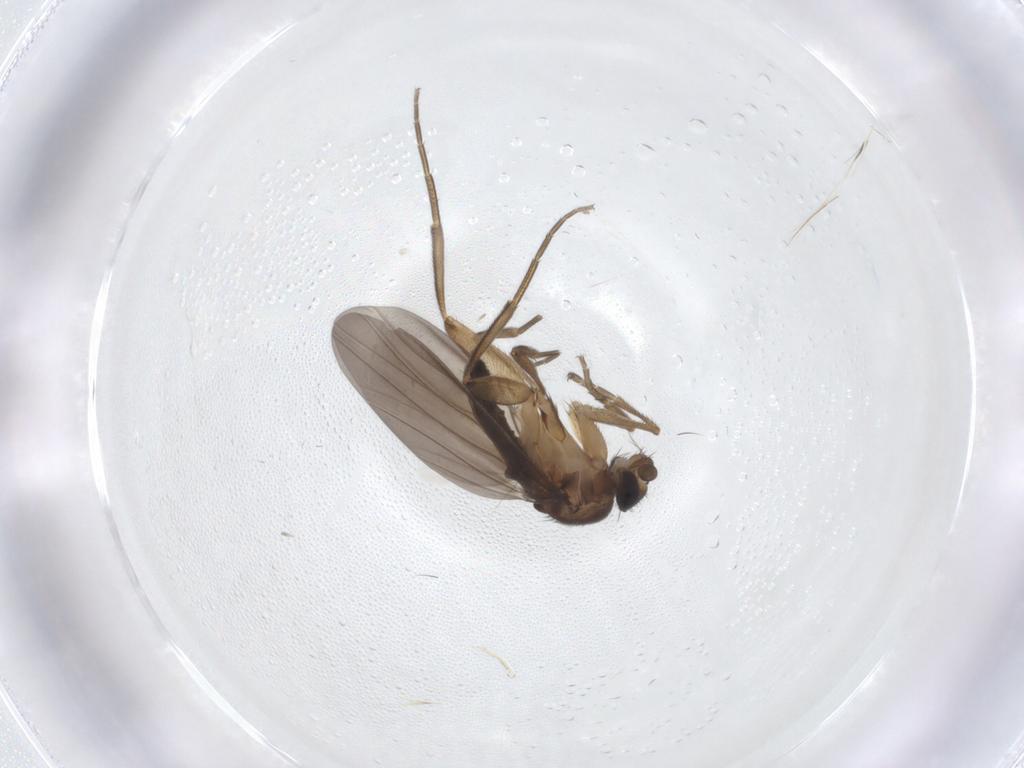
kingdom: Animalia
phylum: Arthropoda
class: Insecta
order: Diptera
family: Phoridae
